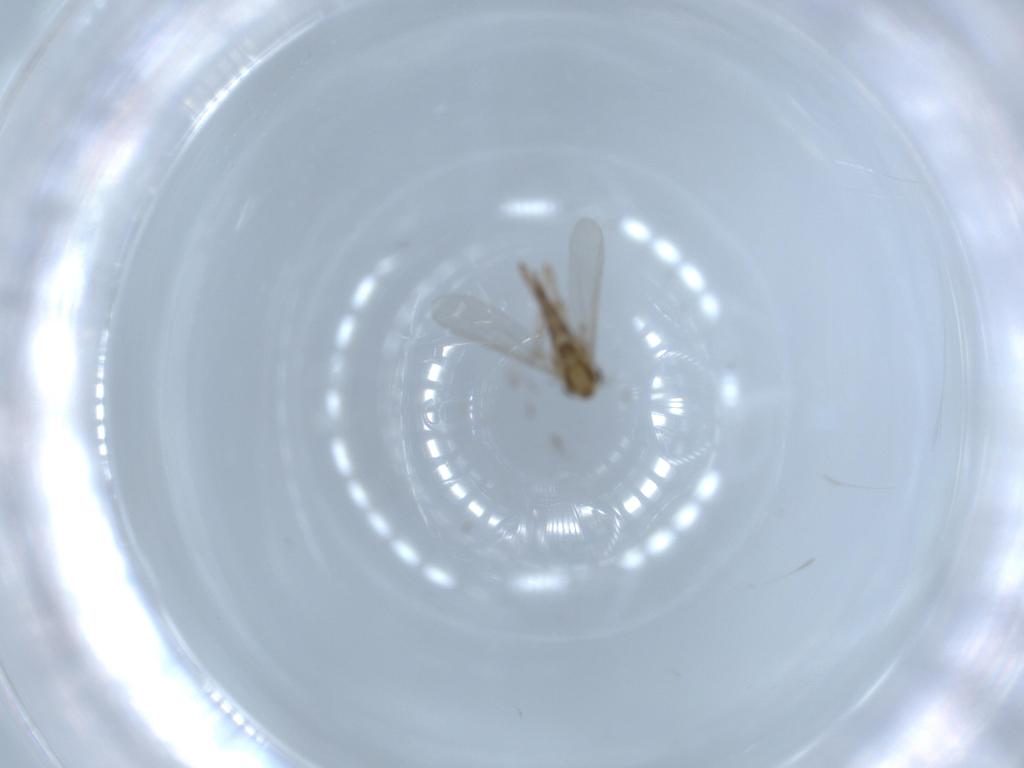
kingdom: Animalia
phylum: Arthropoda
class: Insecta
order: Diptera
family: Chironomidae
